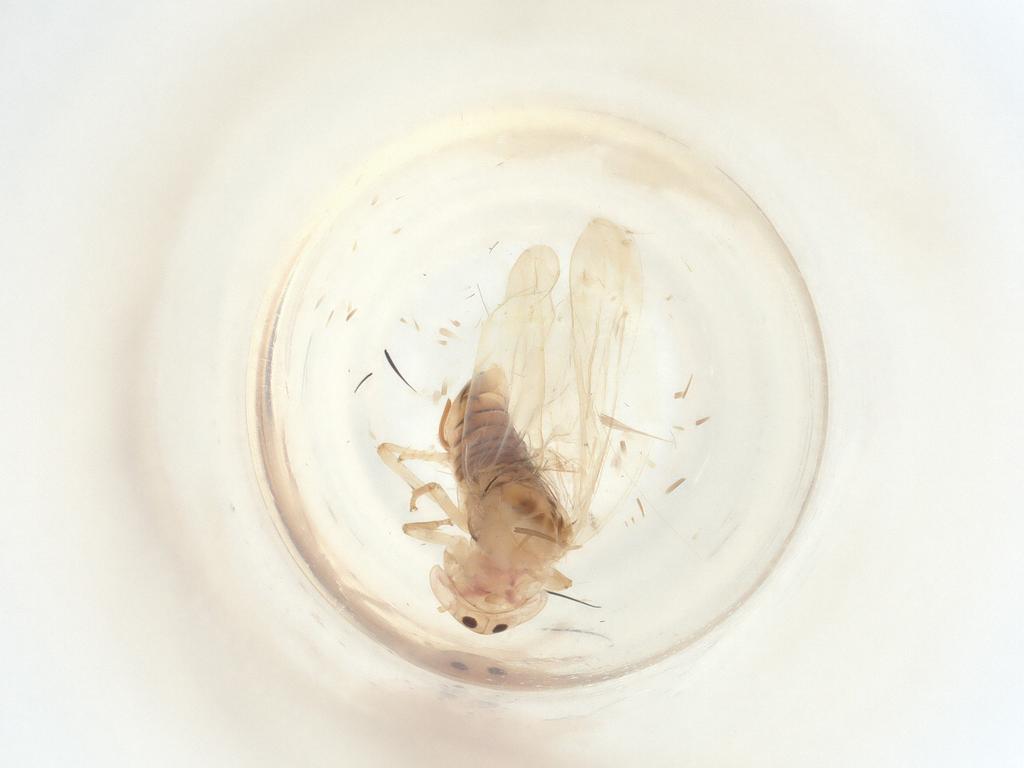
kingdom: Animalia
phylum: Arthropoda
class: Insecta
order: Hemiptera
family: Cicadellidae
